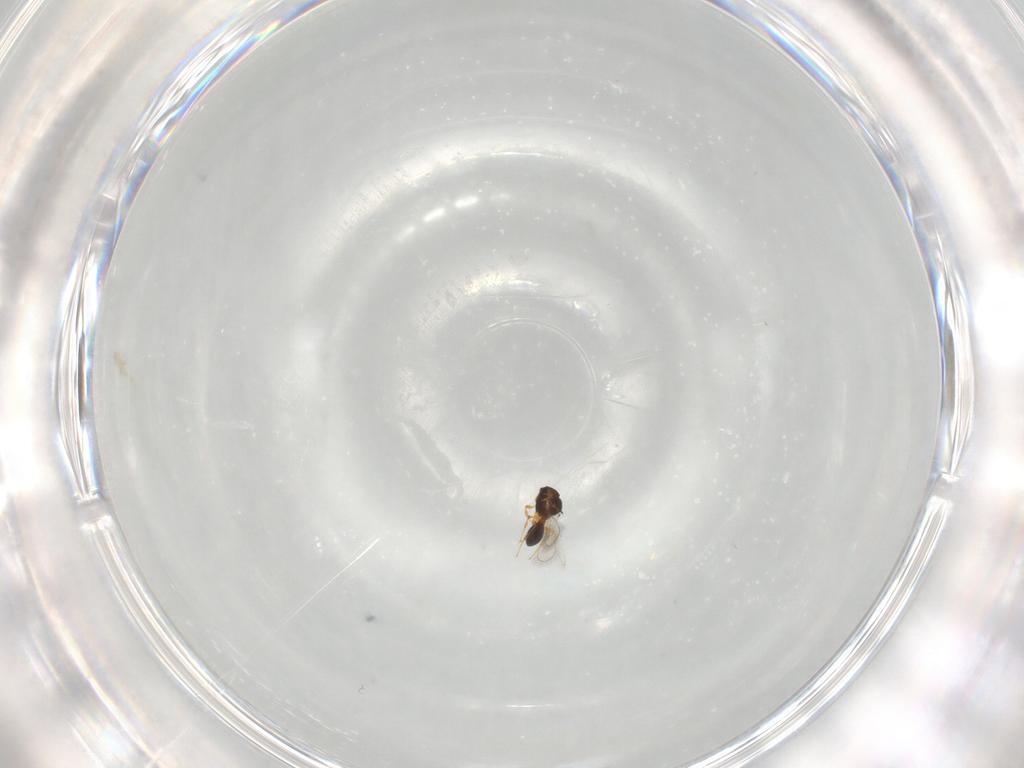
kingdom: Animalia
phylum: Arthropoda
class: Insecta
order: Hymenoptera
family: Platygastridae
